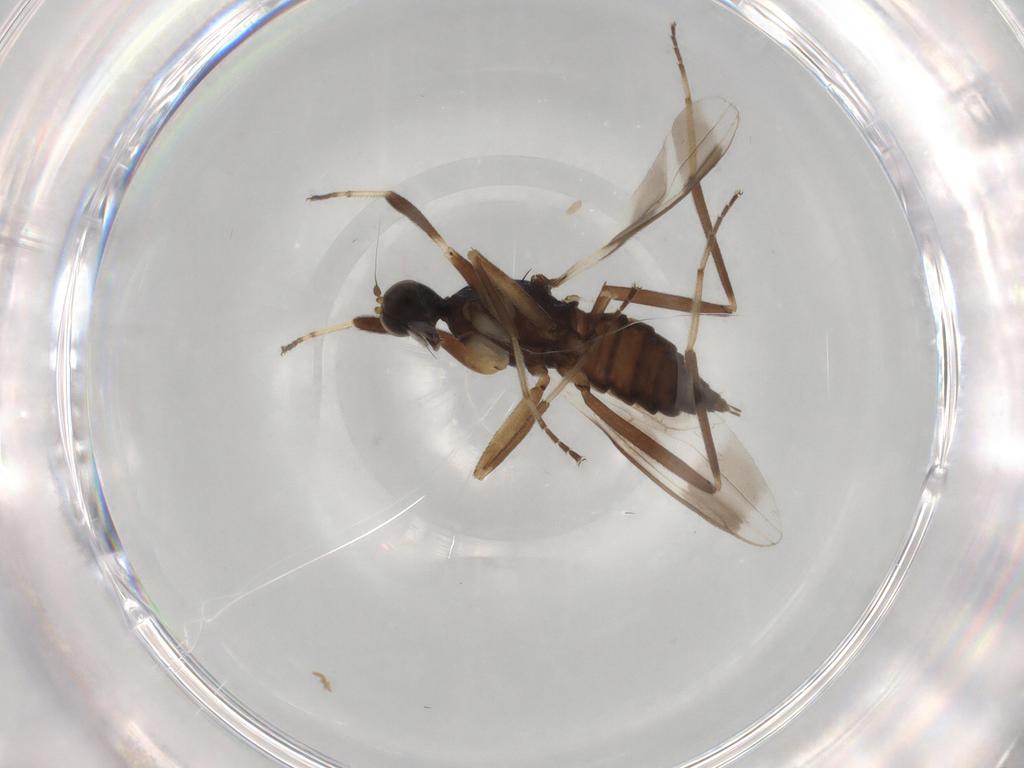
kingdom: Animalia
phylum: Arthropoda
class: Insecta
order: Diptera
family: Hybotidae
